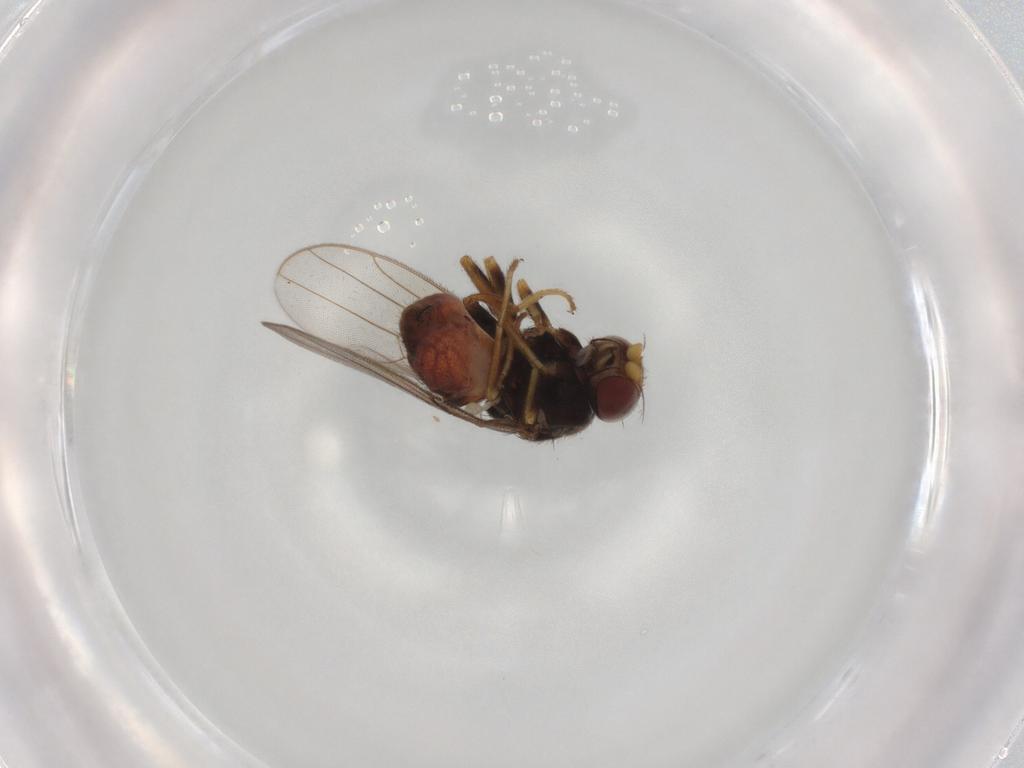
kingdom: Animalia
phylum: Arthropoda
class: Insecta
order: Diptera
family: Chloropidae
